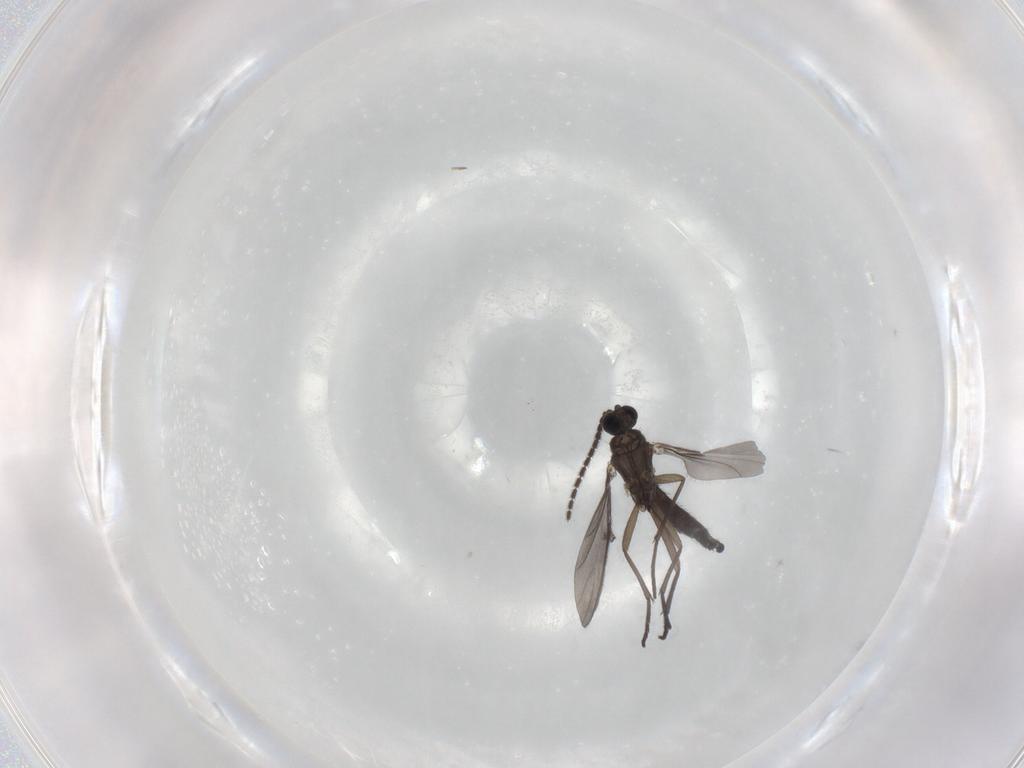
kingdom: Animalia
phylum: Arthropoda
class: Insecta
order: Diptera
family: Sciaridae
